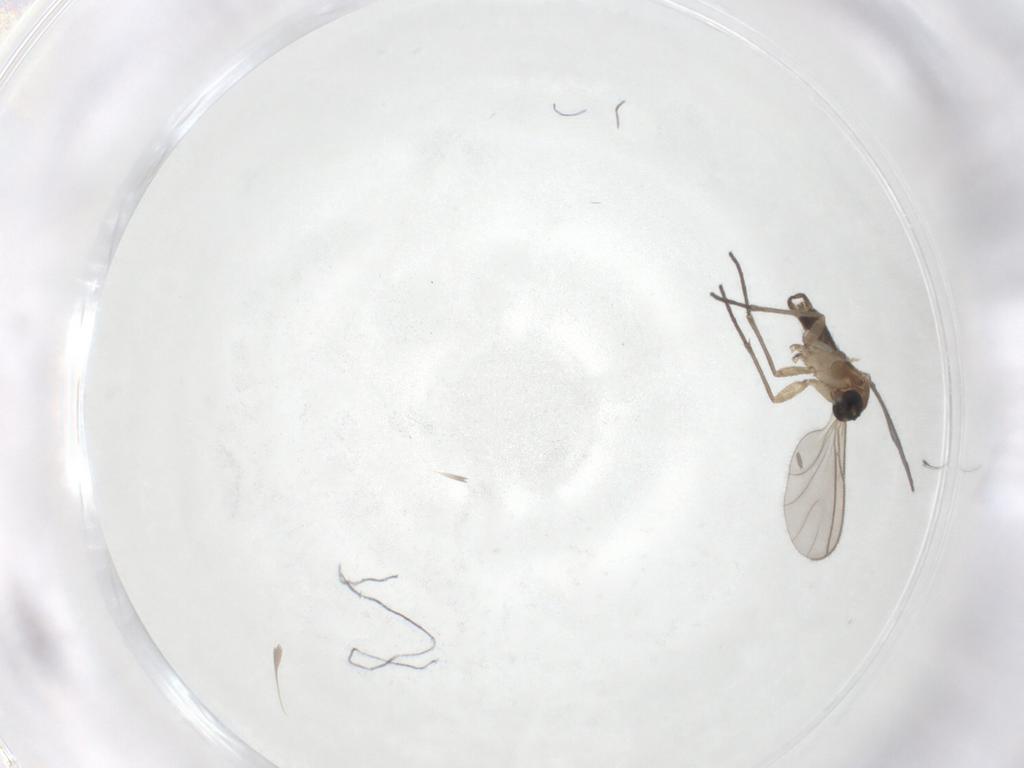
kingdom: Animalia
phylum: Arthropoda
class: Insecta
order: Diptera
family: Sciaridae
